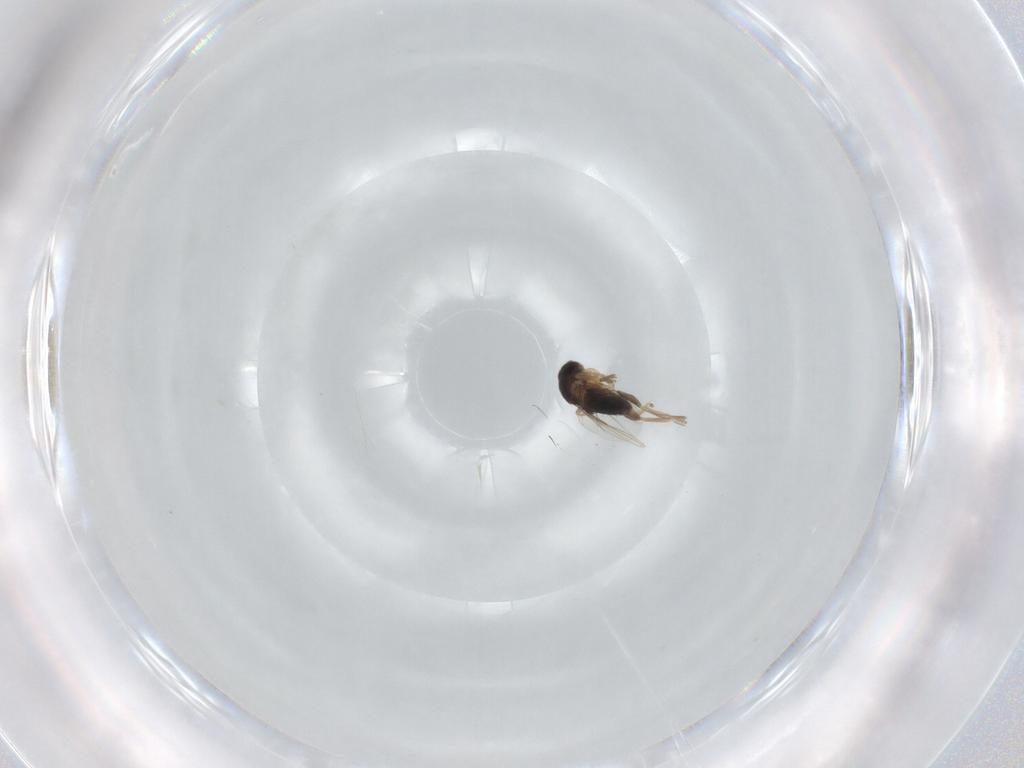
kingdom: Animalia
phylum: Arthropoda
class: Insecta
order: Diptera
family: Phoridae
